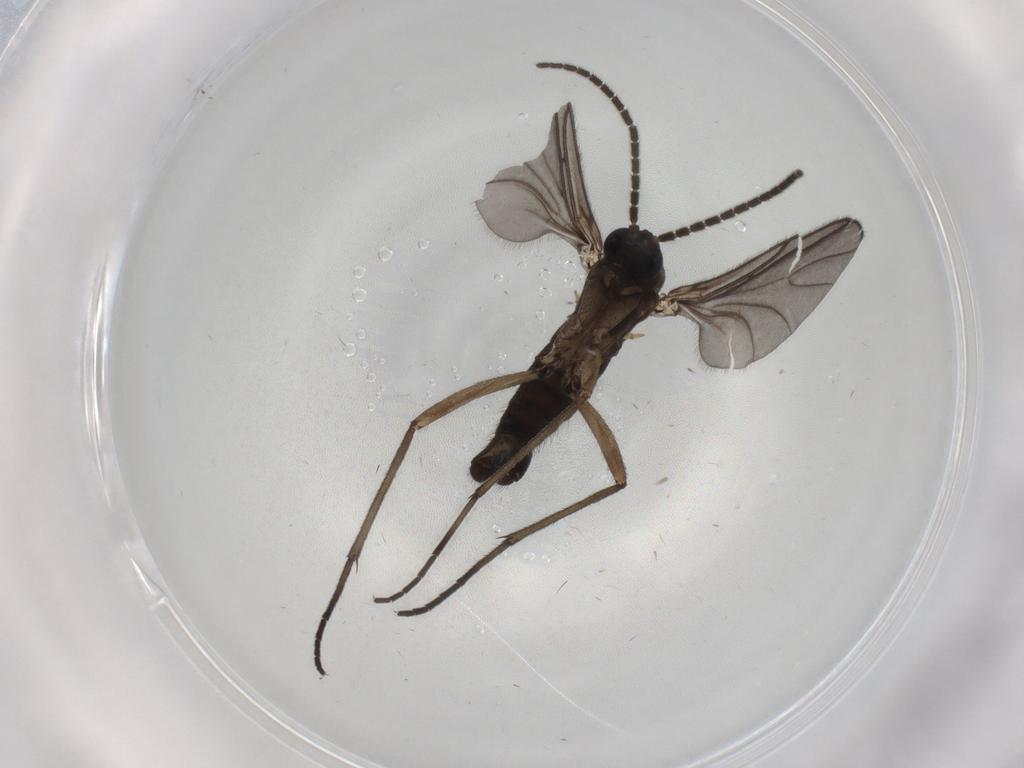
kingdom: Animalia
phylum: Arthropoda
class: Insecta
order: Diptera
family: Sciaridae
